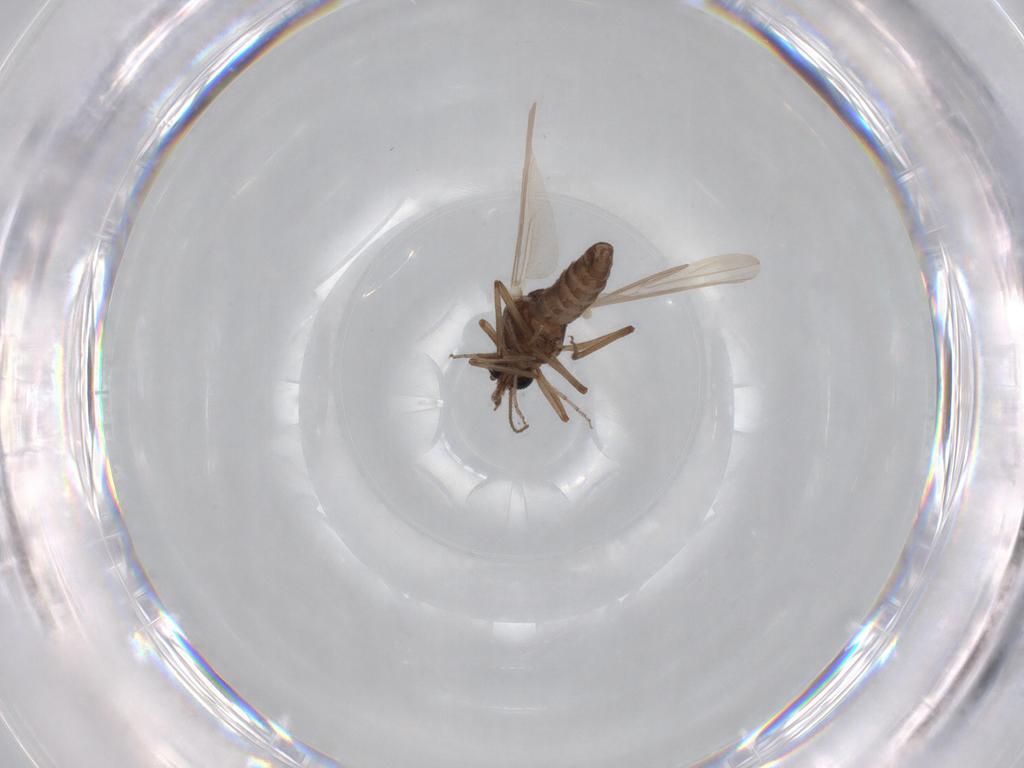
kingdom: Animalia
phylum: Arthropoda
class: Insecta
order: Diptera
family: Ceratopogonidae
